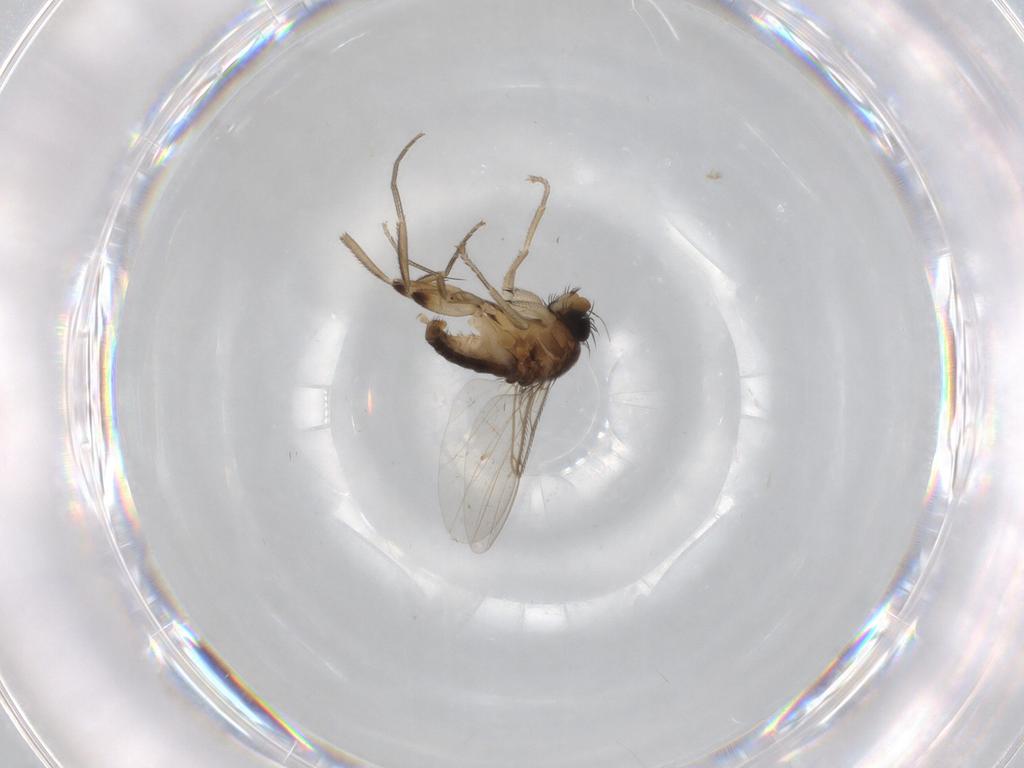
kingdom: Animalia
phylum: Arthropoda
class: Insecta
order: Diptera
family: Phoridae
